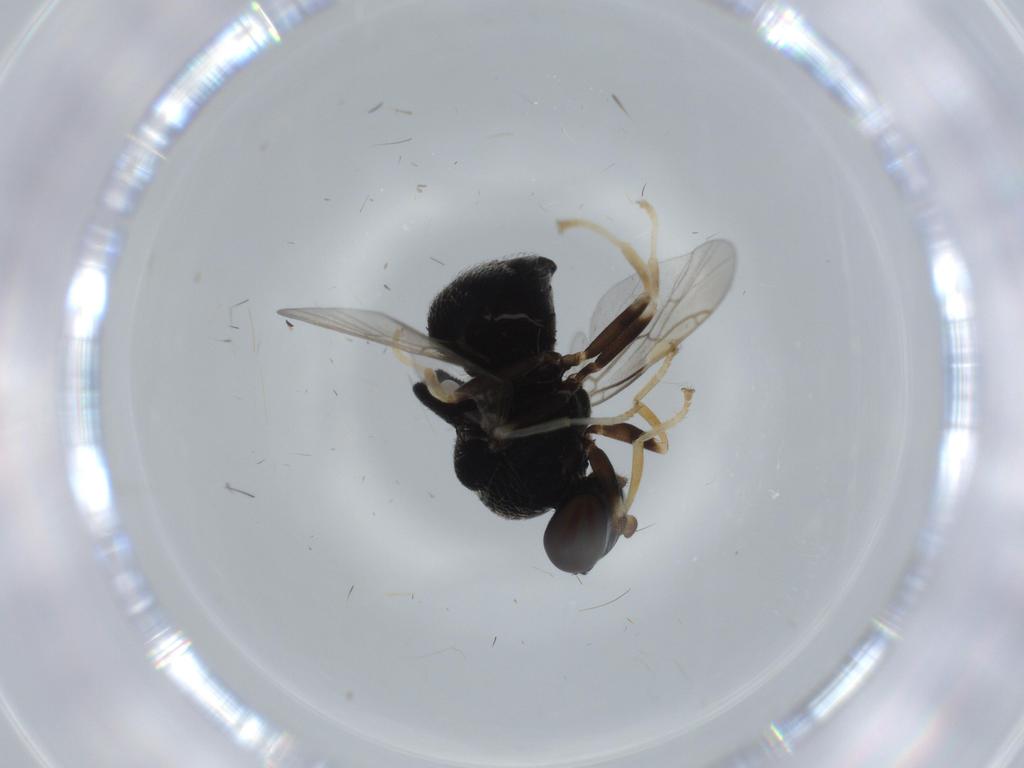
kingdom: Animalia
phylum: Arthropoda
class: Insecta
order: Diptera
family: Stratiomyidae
